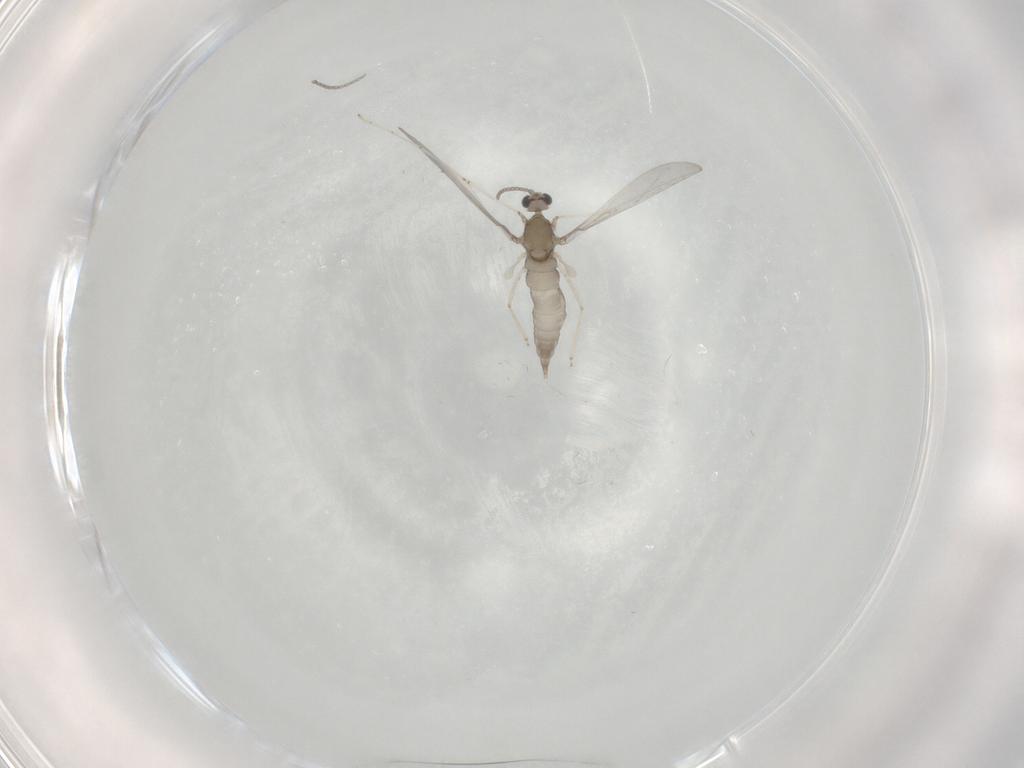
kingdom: Animalia
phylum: Arthropoda
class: Insecta
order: Diptera
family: Cecidomyiidae
